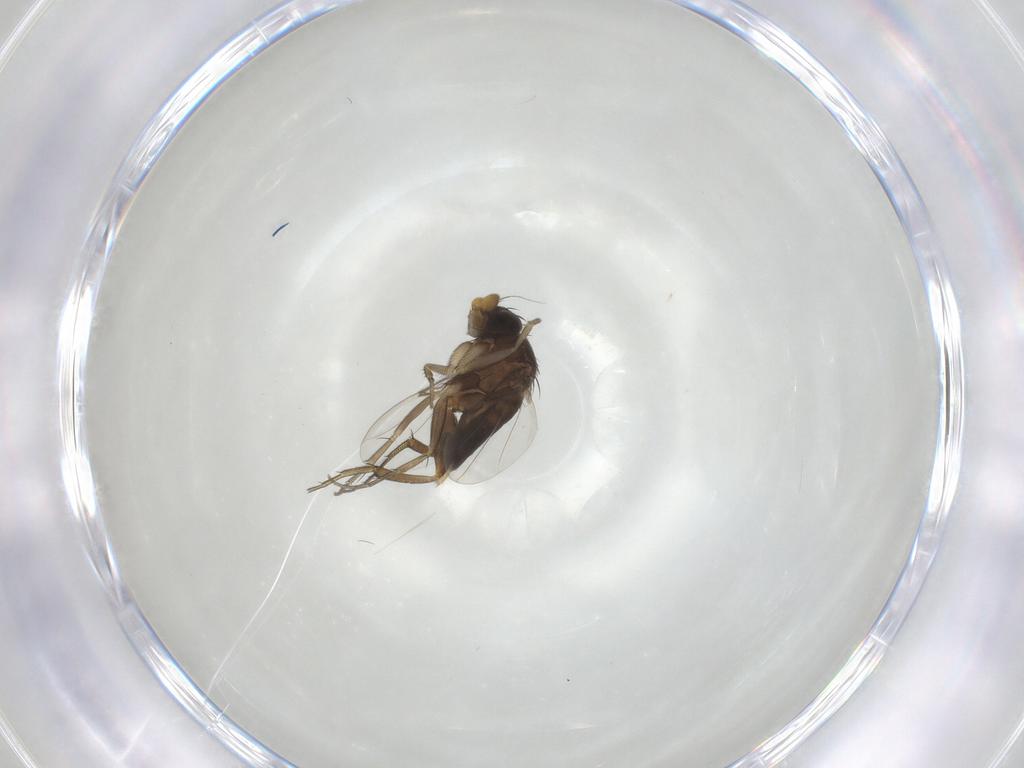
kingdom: Animalia
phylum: Arthropoda
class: Insecta
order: Diptera
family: Phoridae
